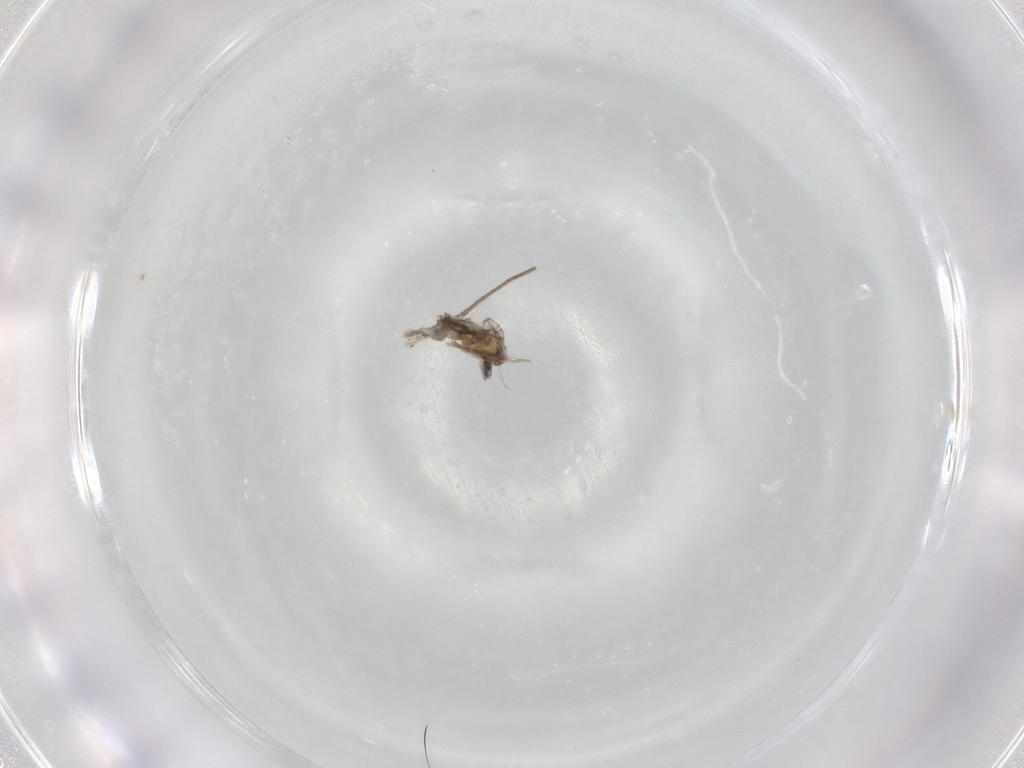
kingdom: Animalia
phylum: Arthropoda
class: Insecta
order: Diptera
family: Cecidomyiidae
